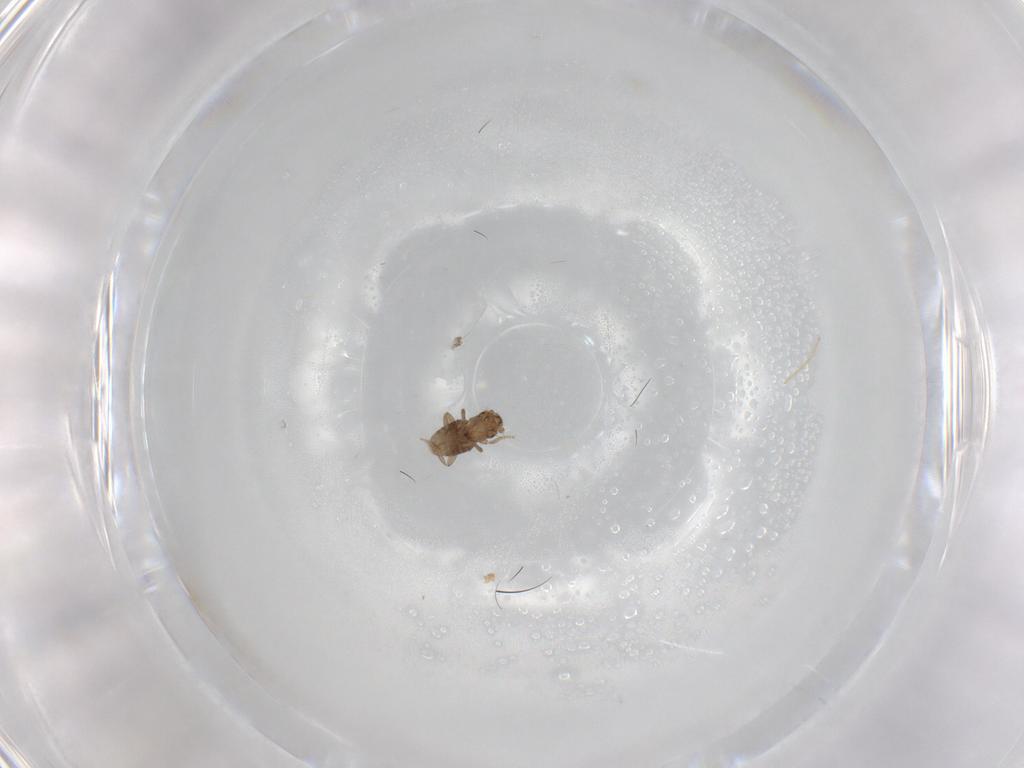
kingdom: Animalia
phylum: Arthropoda
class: Insecta
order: Diptera
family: Chironomidae
